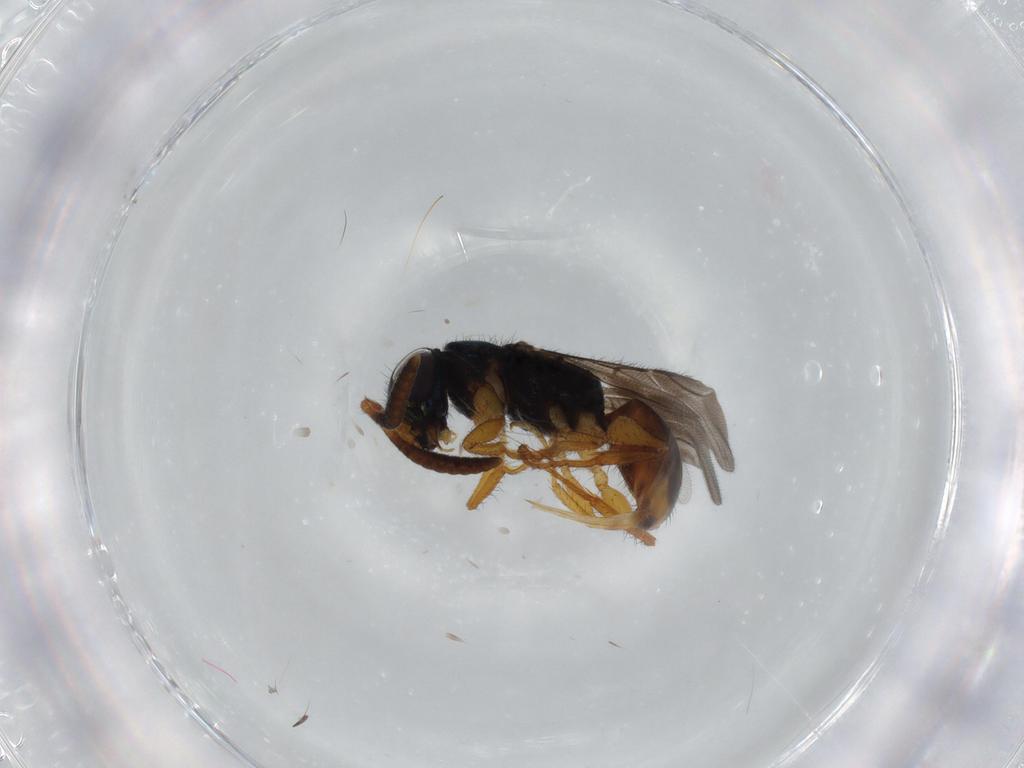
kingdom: Animalia
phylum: Arthropoda
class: Insecta
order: Hymenoptera
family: Chrysididae
